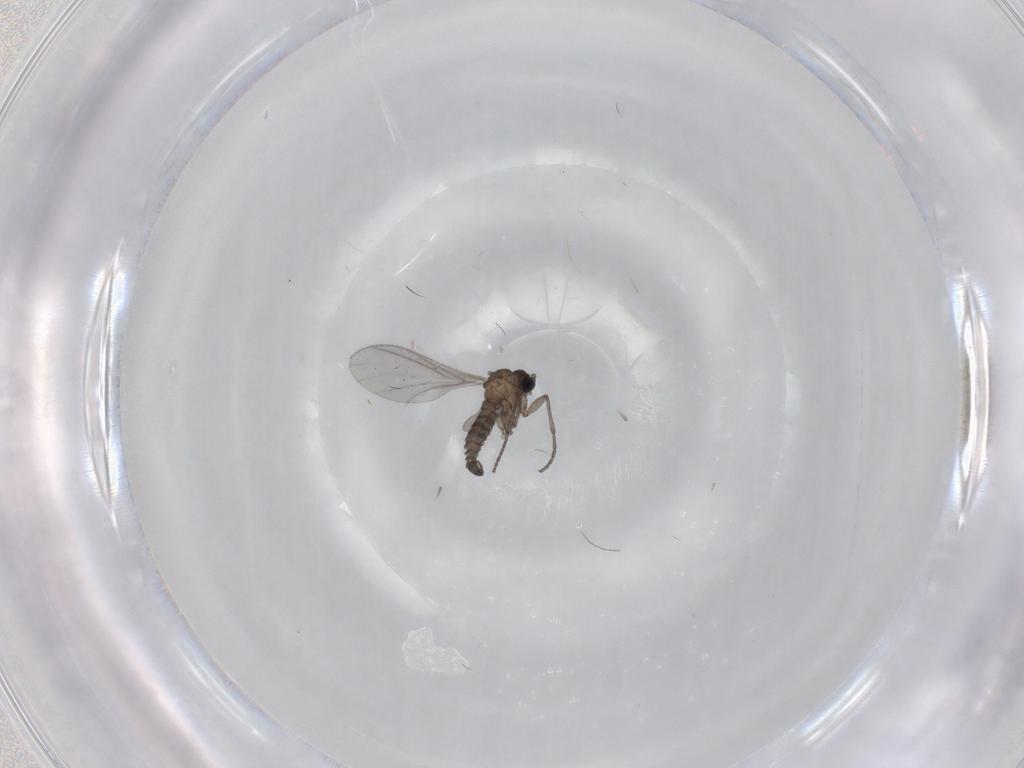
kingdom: Animalia
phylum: Arthropoda
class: Insecta
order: Diptera
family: Sciaridae
